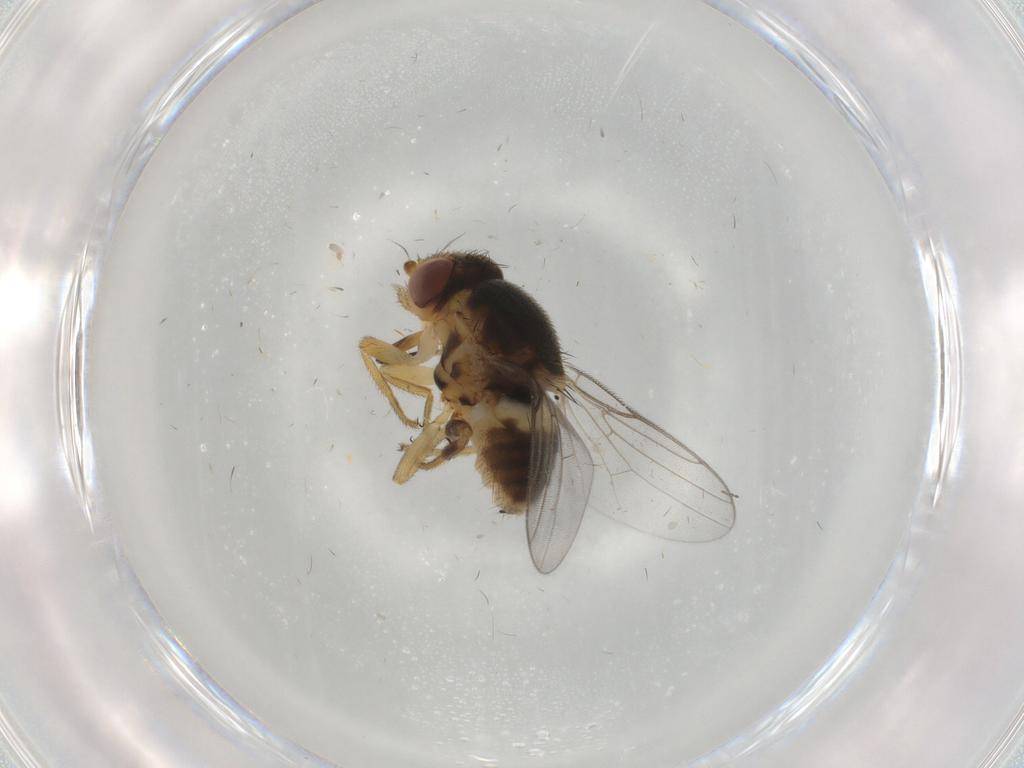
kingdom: Animalia
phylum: Arthropoda
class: Insecta
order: Diptera
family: Chloropidae
